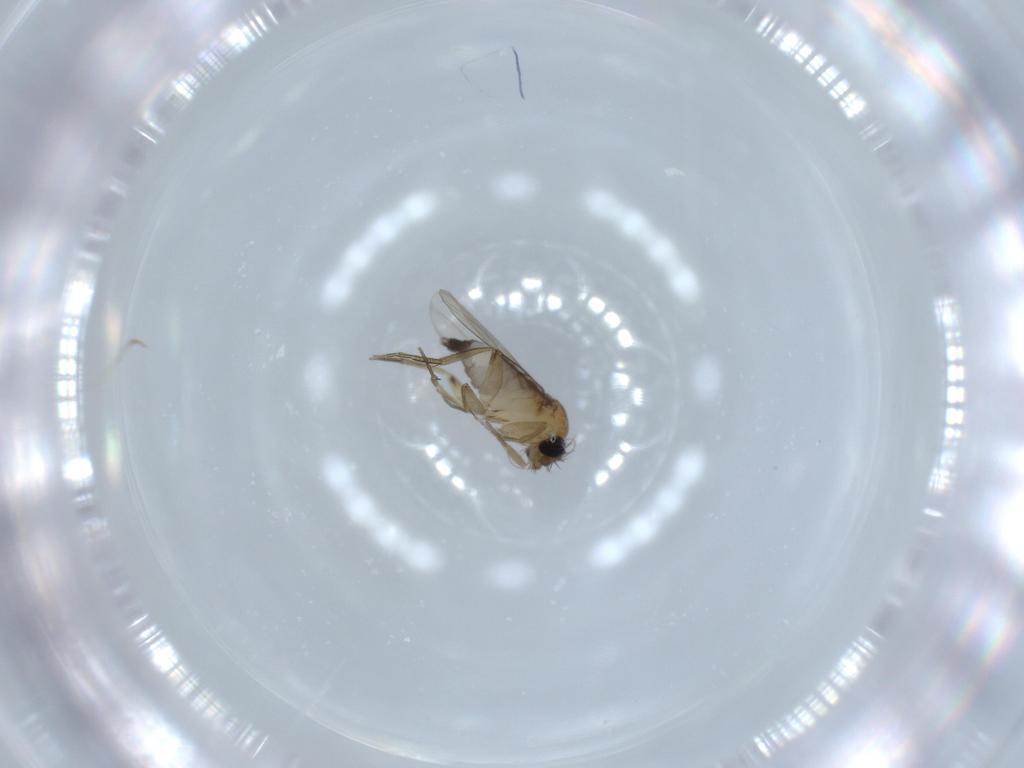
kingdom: Animalia
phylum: Arthropoda
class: Insecta
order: Diptera
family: Phoridae
